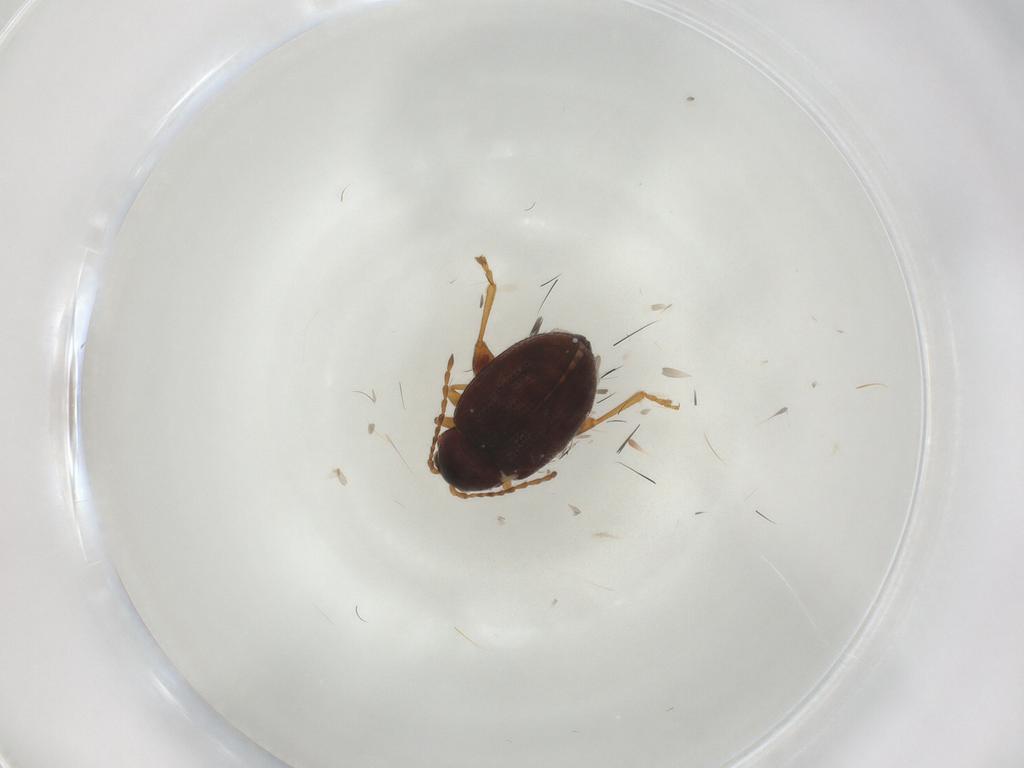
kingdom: Animalia
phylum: Arthropoda
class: Insecta
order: Coleoptera
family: Chrysomelidae
